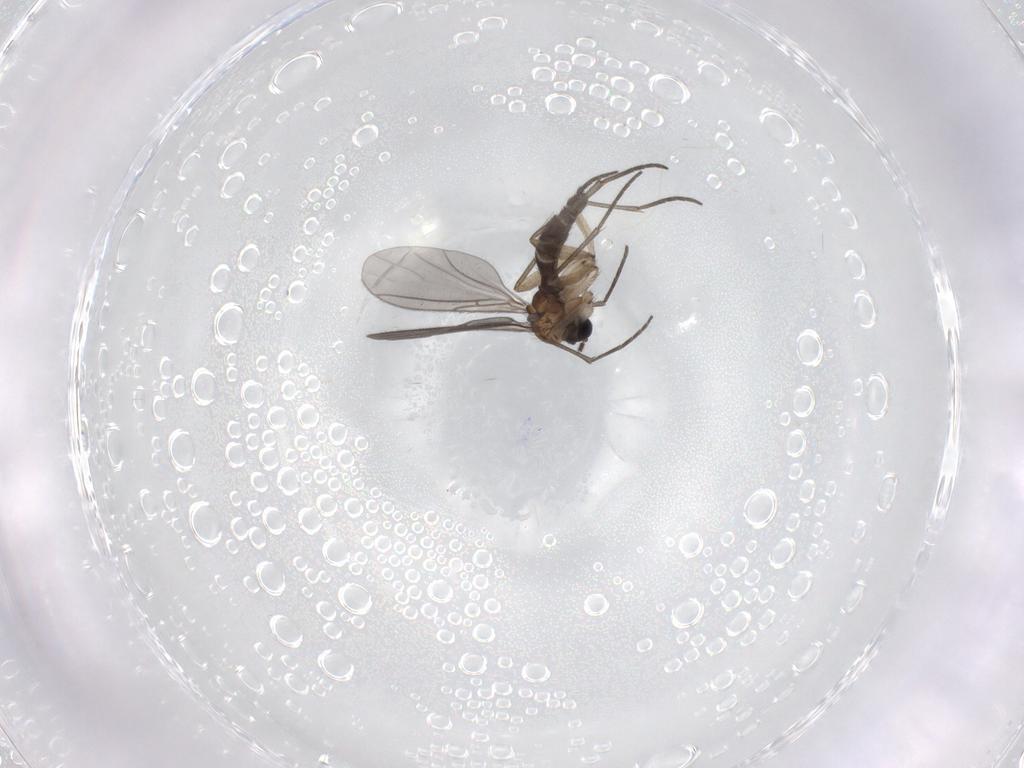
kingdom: Animalia
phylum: Arthropoda
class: Insecta
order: Diptera
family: Sciaridae
